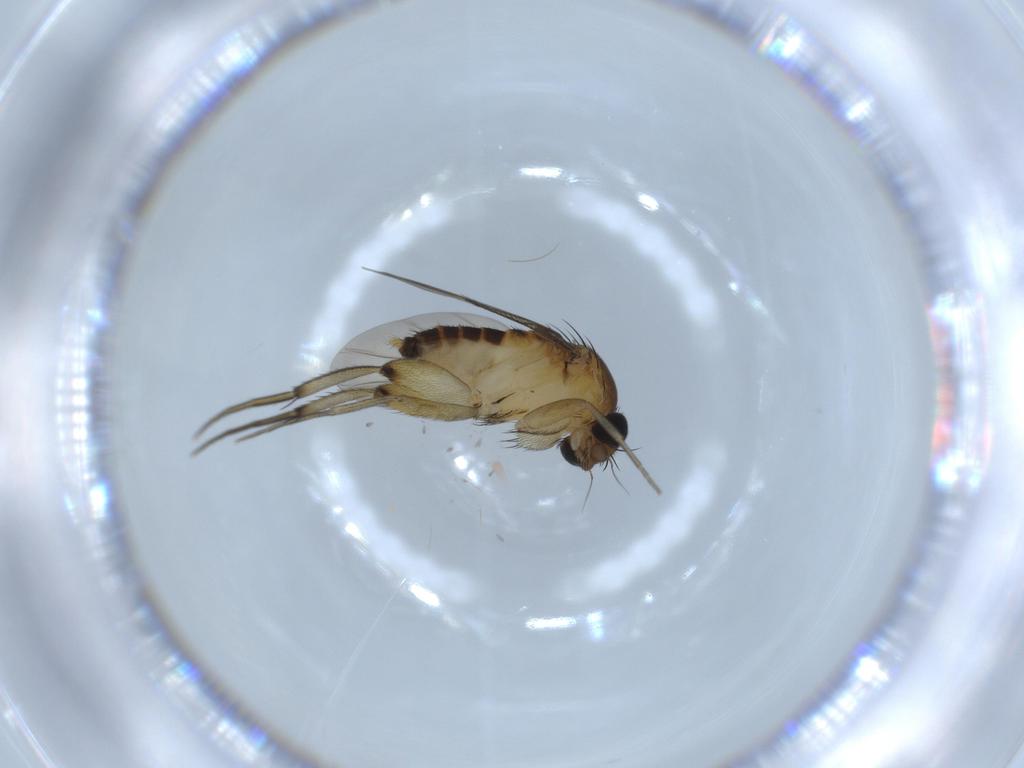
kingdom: Animalia
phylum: Arthropoda
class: Insecta
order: Diptera
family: Phoridae
